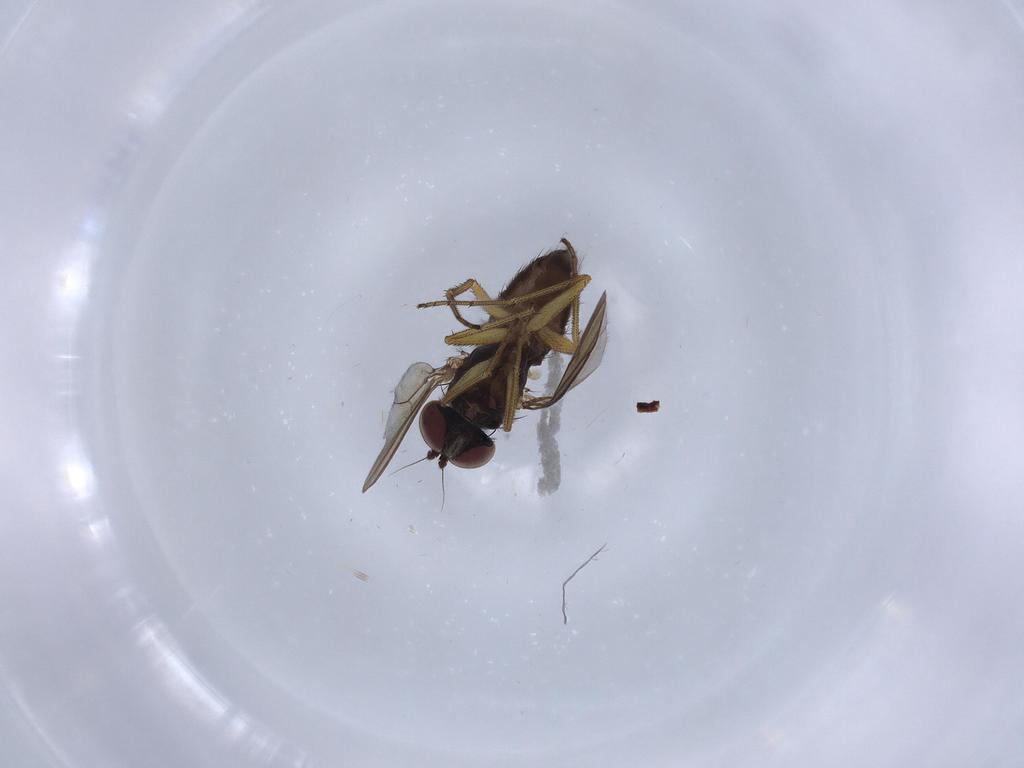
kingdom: Animalia
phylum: Arthropoda
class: Insecta
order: Diptera
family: Dolichopodidae
